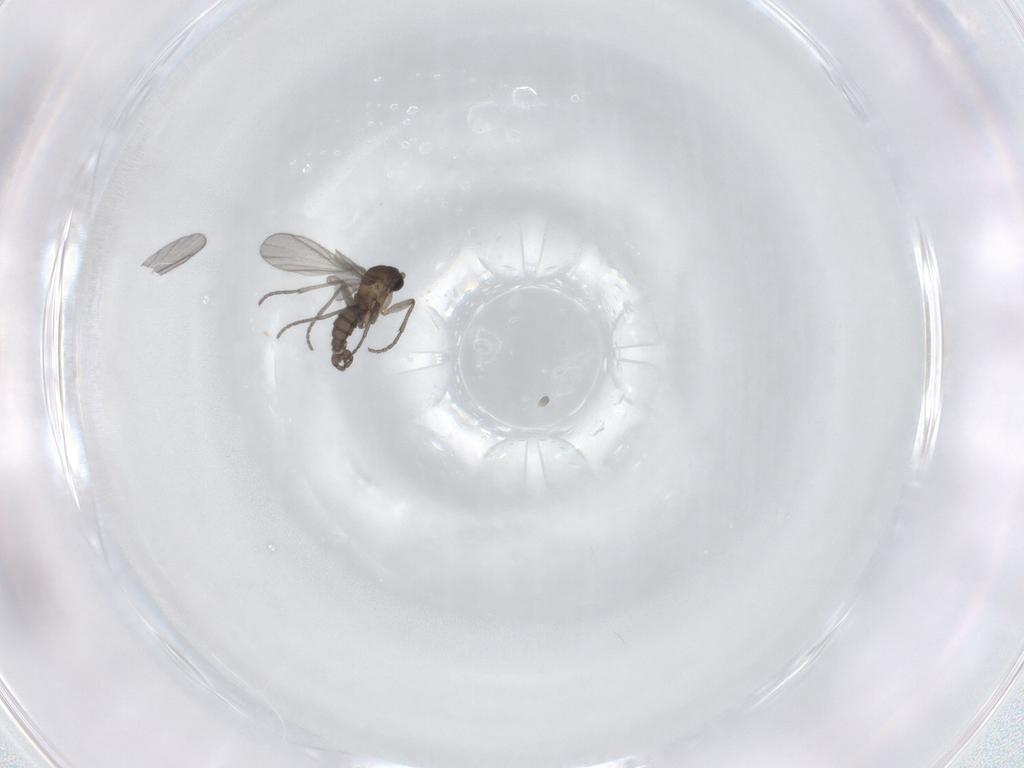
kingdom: Animalia
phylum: Arthropoda
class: Insecta
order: Diptera
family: Sciaridae
